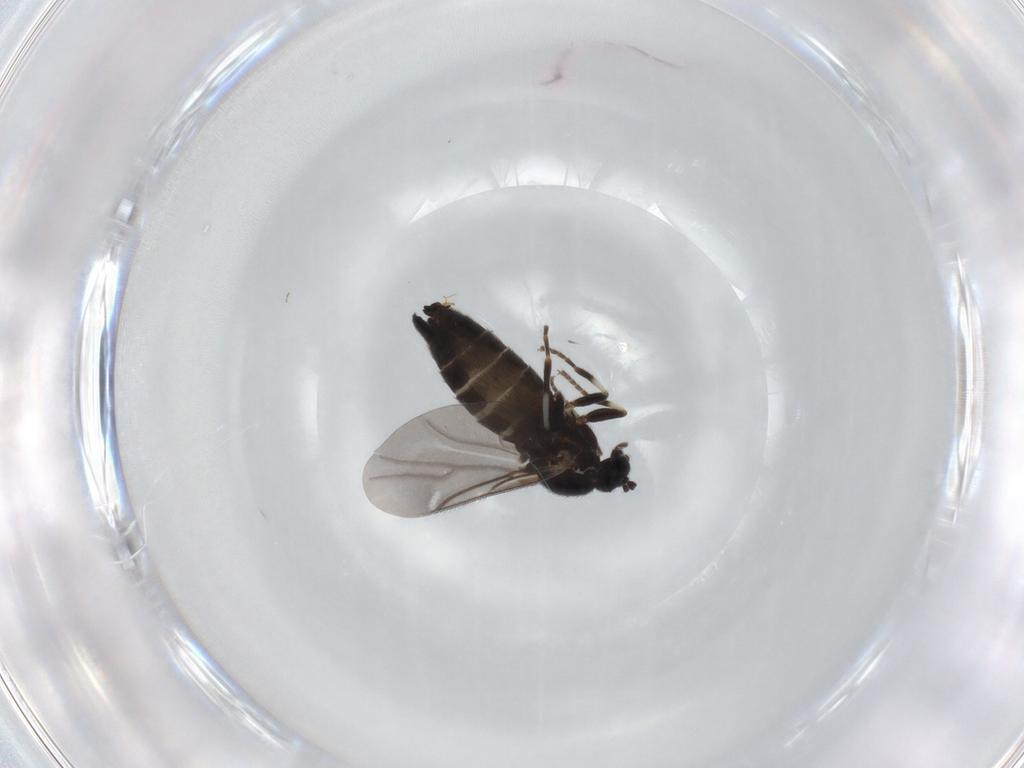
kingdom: Animalia
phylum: Arthropoda
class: Insecta
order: Diptera
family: Scatopsidae
